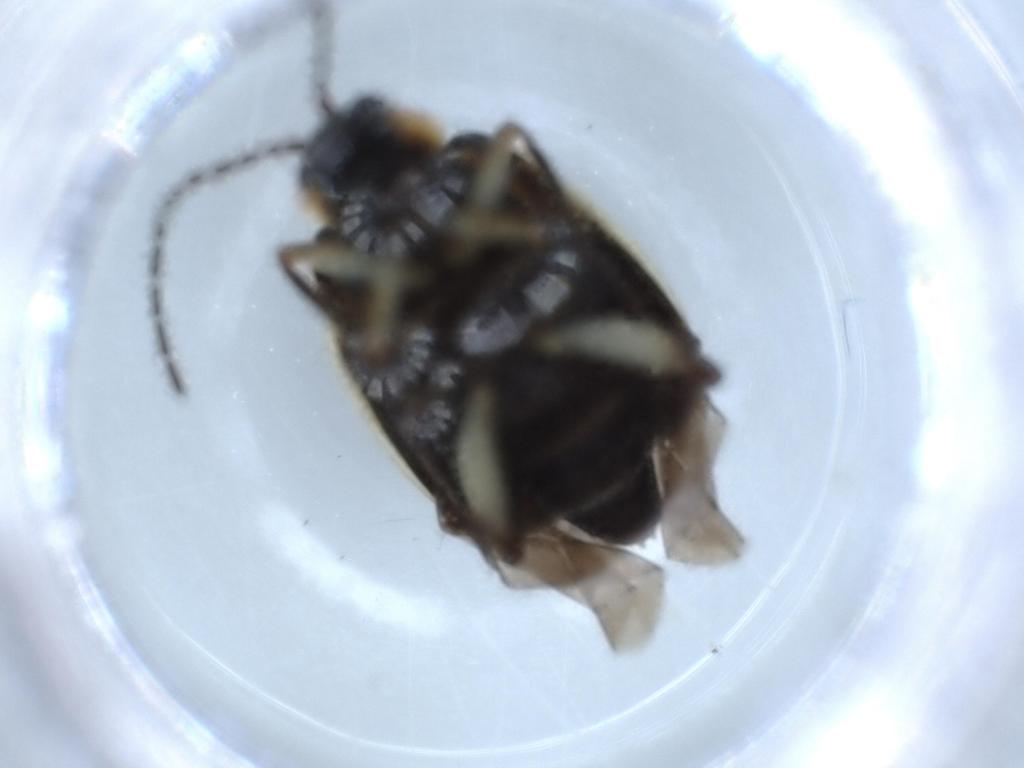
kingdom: Animalia
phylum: Arthropoda
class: Insecta
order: Coleoptera
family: Chrysomelidae
